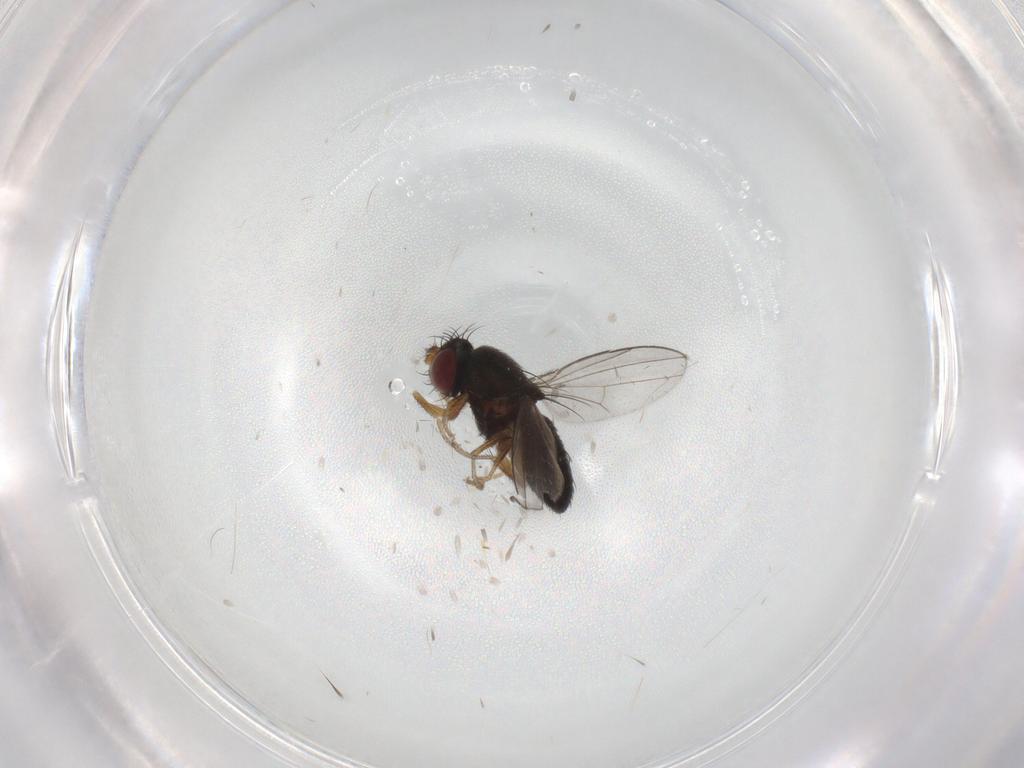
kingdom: Animalia
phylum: Arthropoda
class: Insecta
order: Diptera
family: Ephydridae
